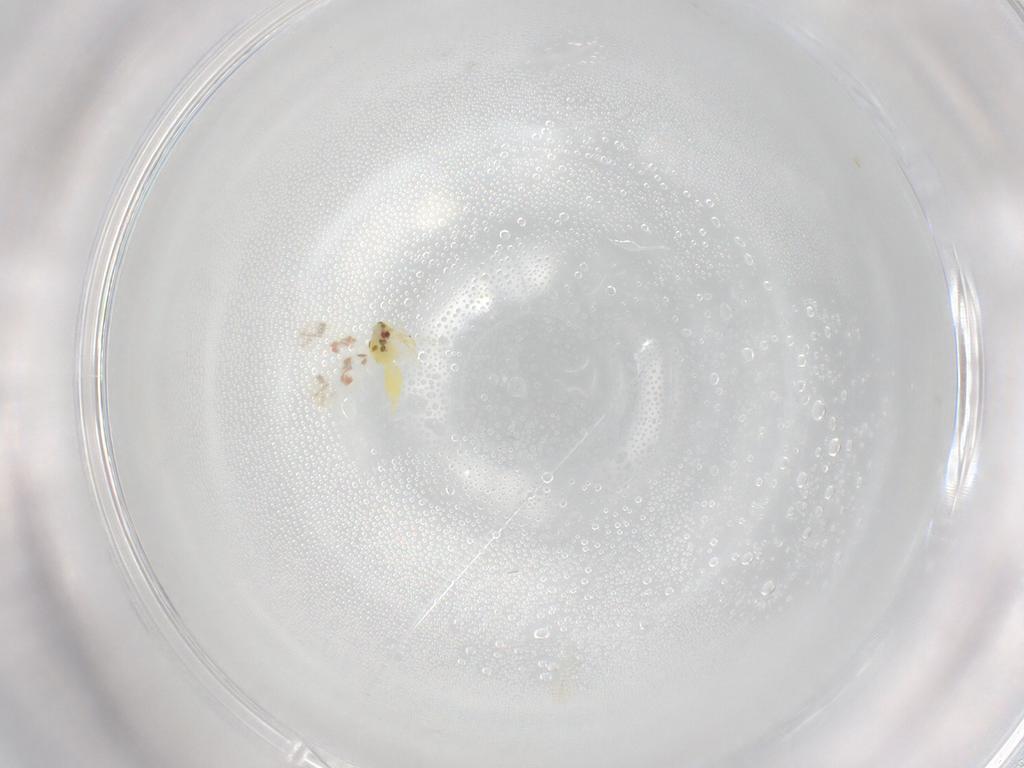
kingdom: Animalia
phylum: Arthropoda
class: Insecta
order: Hemiptera
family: Aleyrodidae
